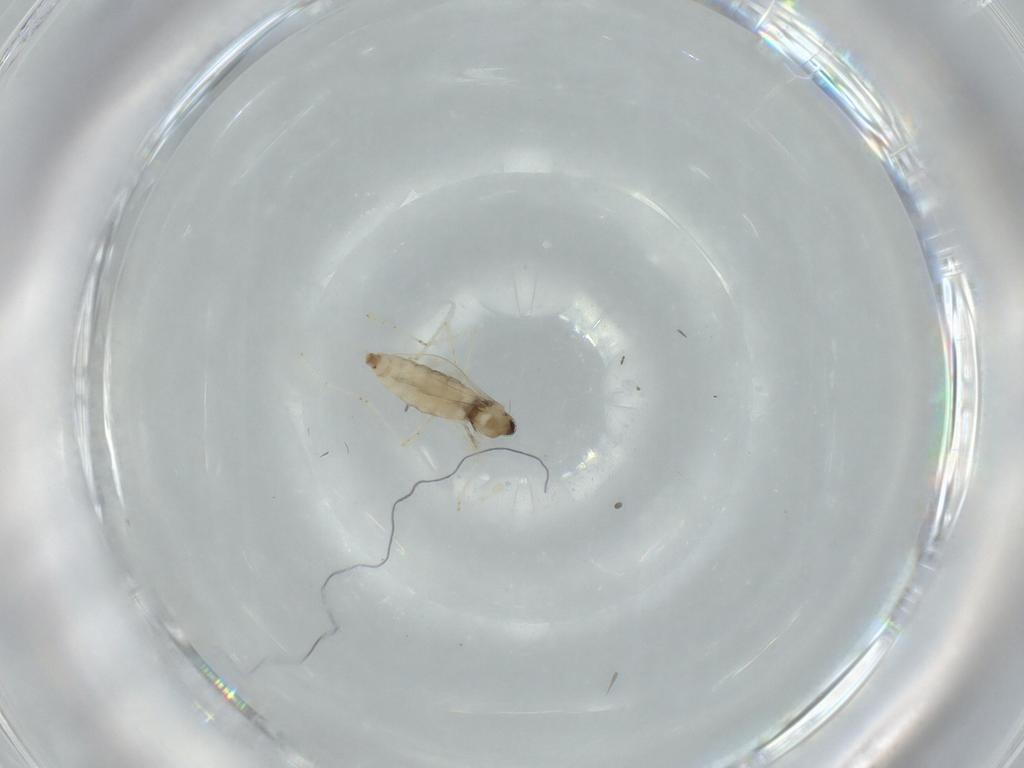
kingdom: Animalia
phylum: Arthropoda
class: Insecta
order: Diptera
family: Cecidomyiidae
